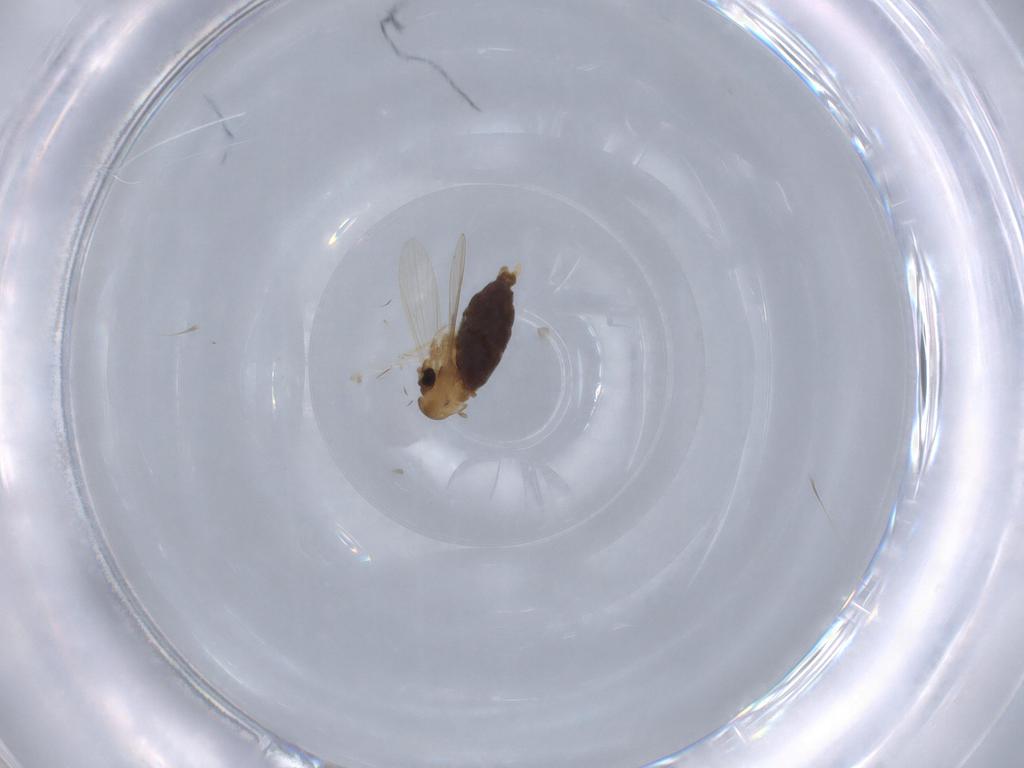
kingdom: Animalia
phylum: Arthropoda
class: Insecta
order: Diptera
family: Psychodidae
